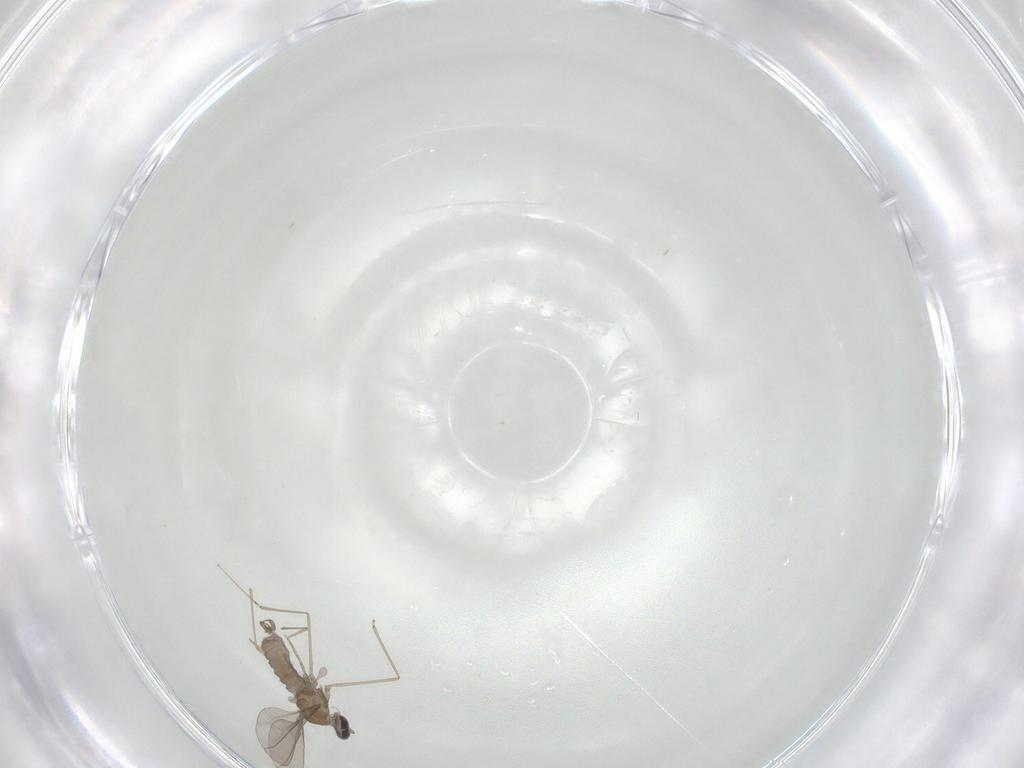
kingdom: Animalia
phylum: Arthropoda
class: Insecta
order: Diptera
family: Cecidomyiidae
